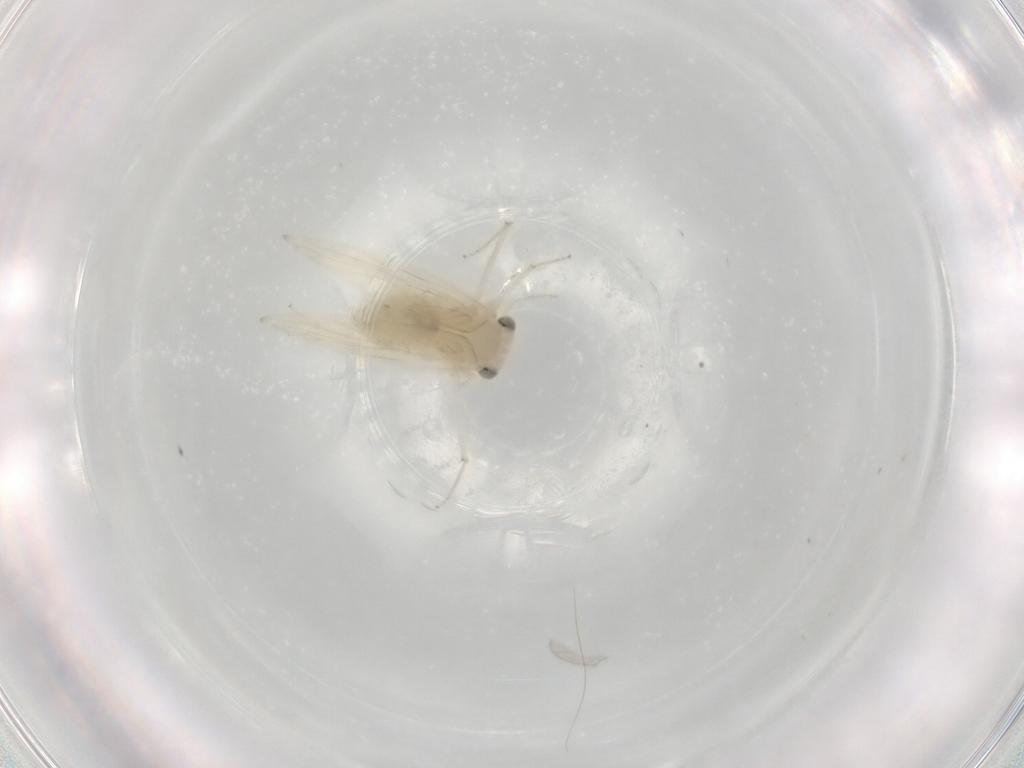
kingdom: Animalia
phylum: Arthropoda
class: Insecta
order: Psocodea
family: Lepidopsocidae
